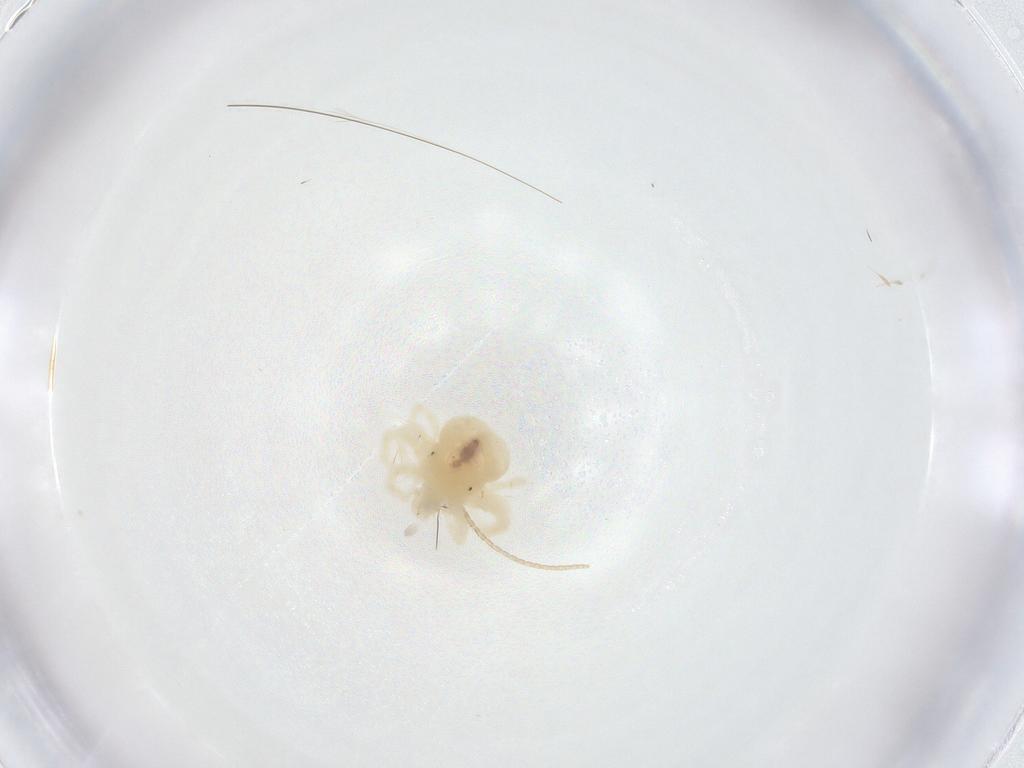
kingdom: Animalia
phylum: Arthropoda
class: Arachnida
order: Trombidiformes
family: Anystidae
